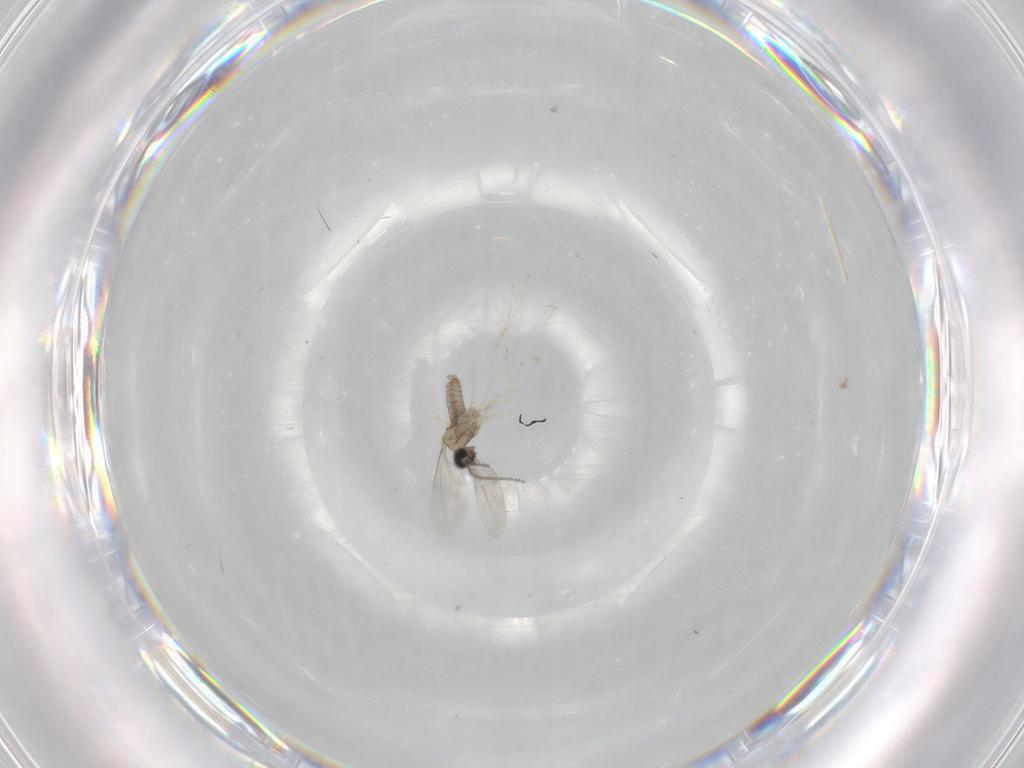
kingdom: Animalia
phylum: Arthropoda
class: Insecta
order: Diptera
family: Cecidomyiidae
